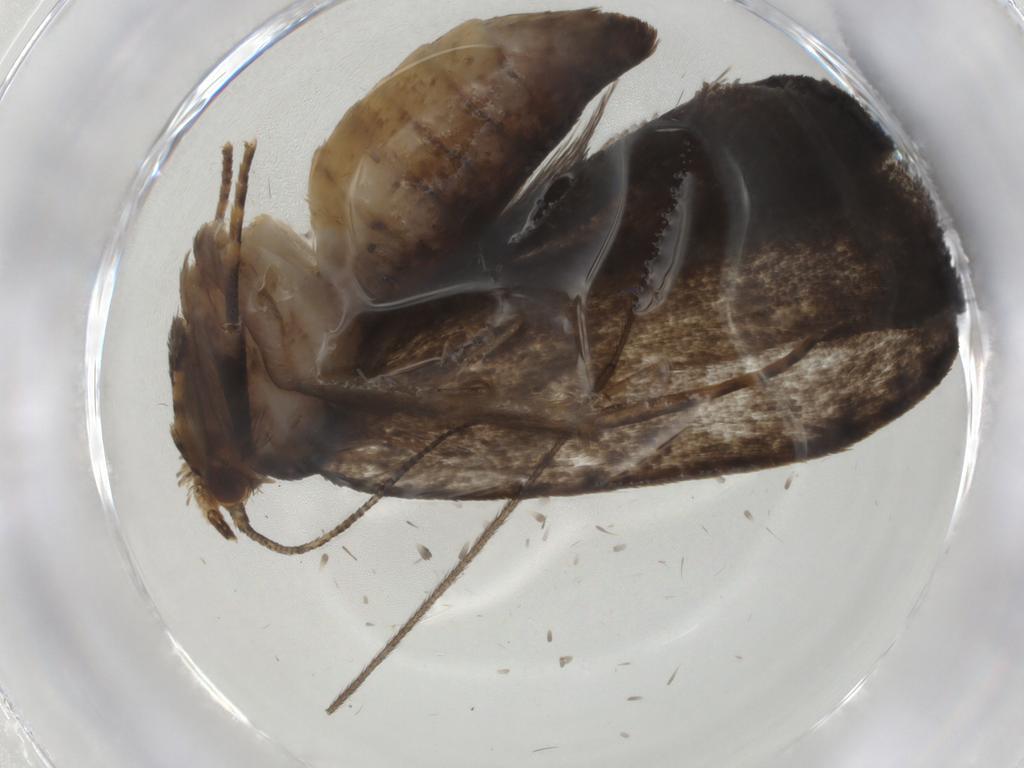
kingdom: Animalia
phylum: Arthropoda
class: Insecta
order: Lepidoptera
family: Tineidae
